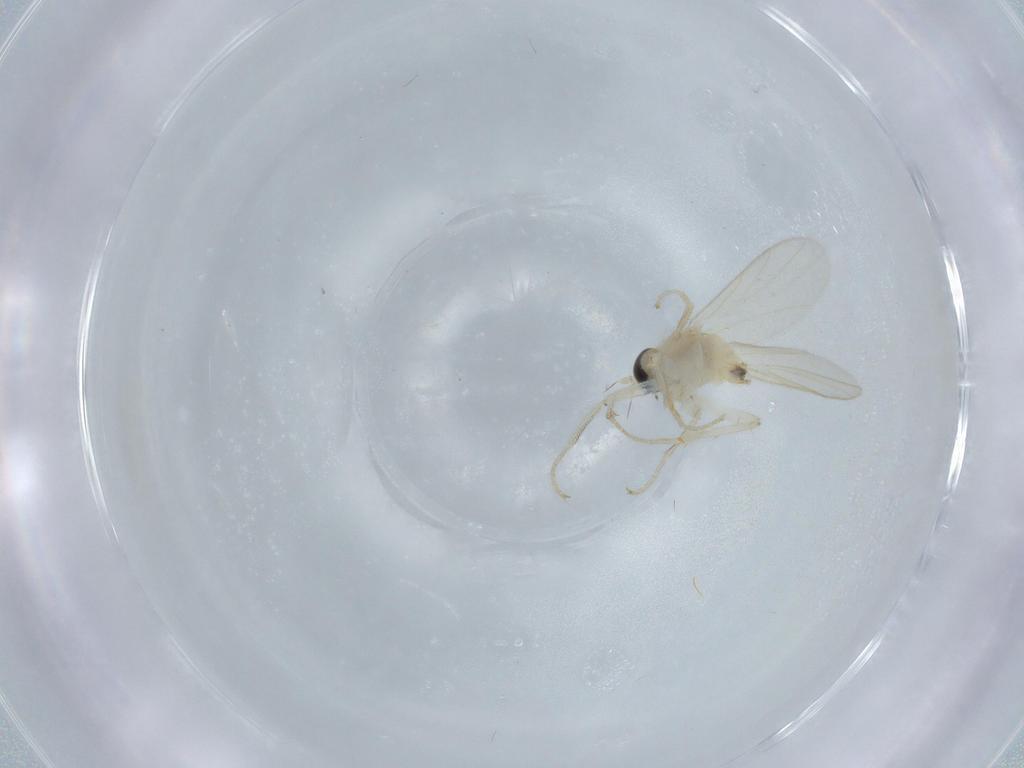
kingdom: Animalia
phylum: Arthropoda
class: Insecta
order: Diptera
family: Hybotidae
